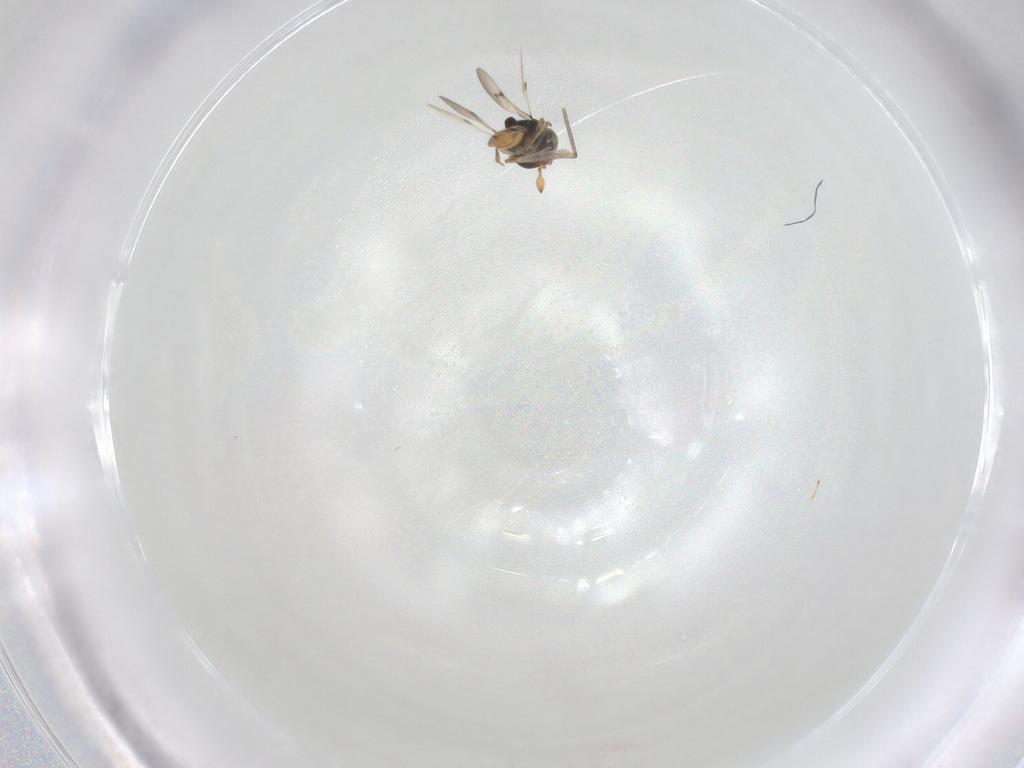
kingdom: Animalia
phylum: Arthropoda
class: Insecta
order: Hymenoptera
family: Scelionidae
